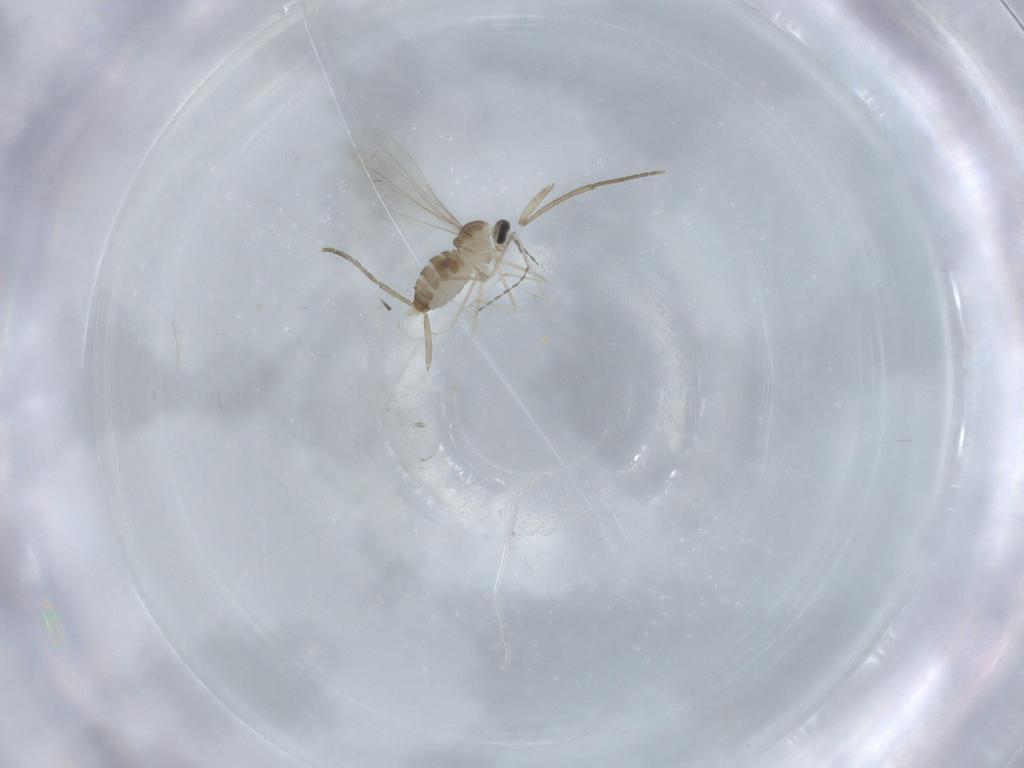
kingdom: Animalia
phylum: Arthropoda
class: Insecta
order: Diptera
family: Cecidomyiidae
